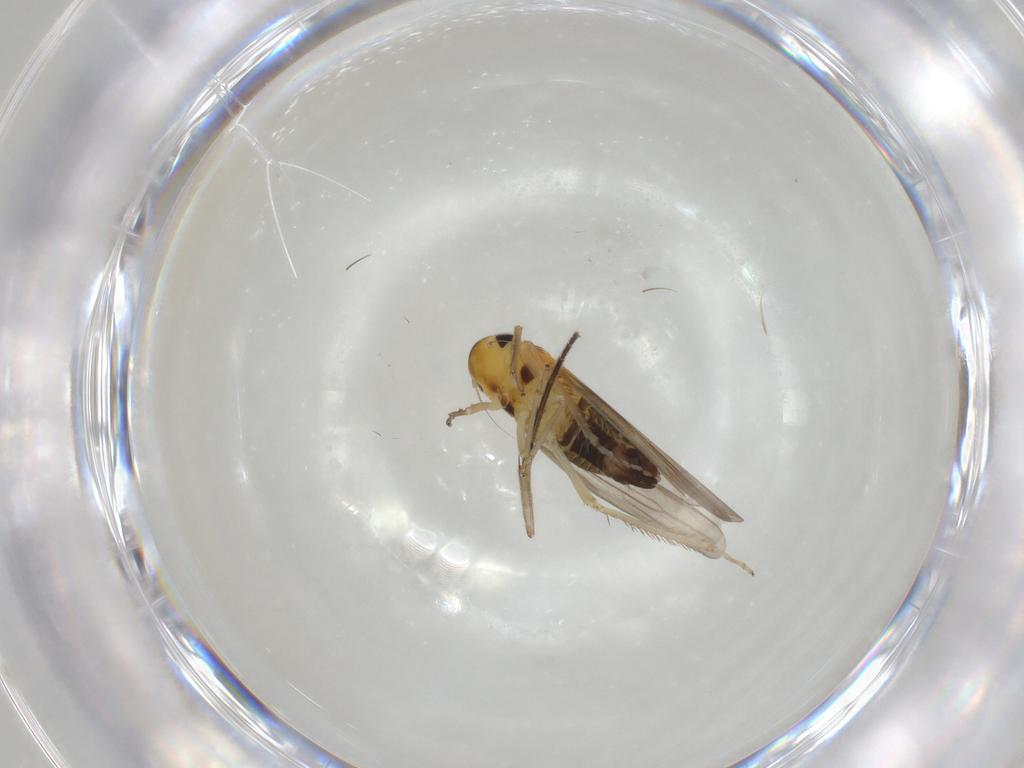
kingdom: Animalia
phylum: Arthropoda
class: Insecta
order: Hemiptera
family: Cicadellidae
